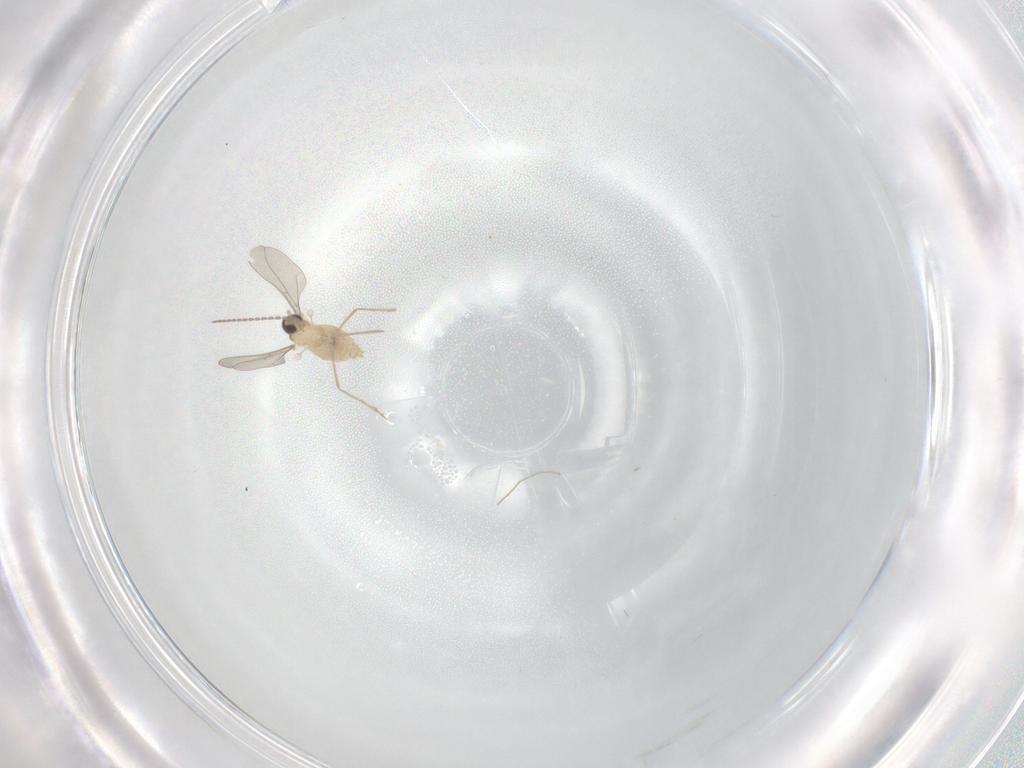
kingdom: Animalia
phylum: Arthropoda
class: Insecta
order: Diptera
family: Cecidomyiidae
